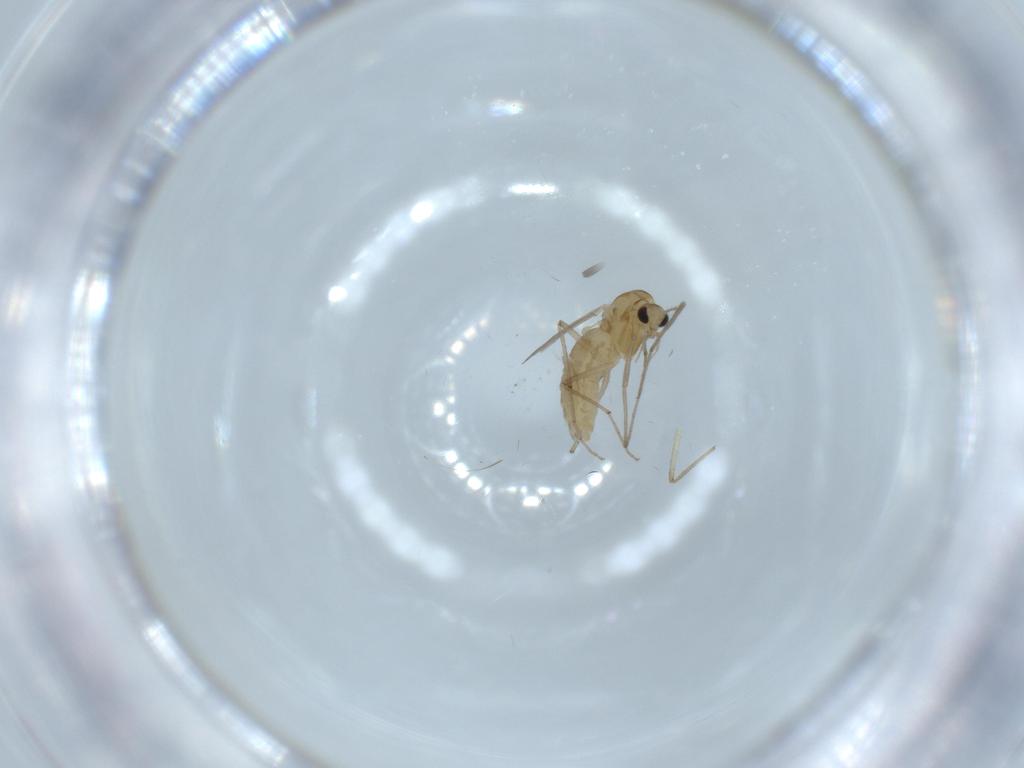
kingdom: Animalia
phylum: Arthropoda
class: Insecta
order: Diptera
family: Chironomidae
